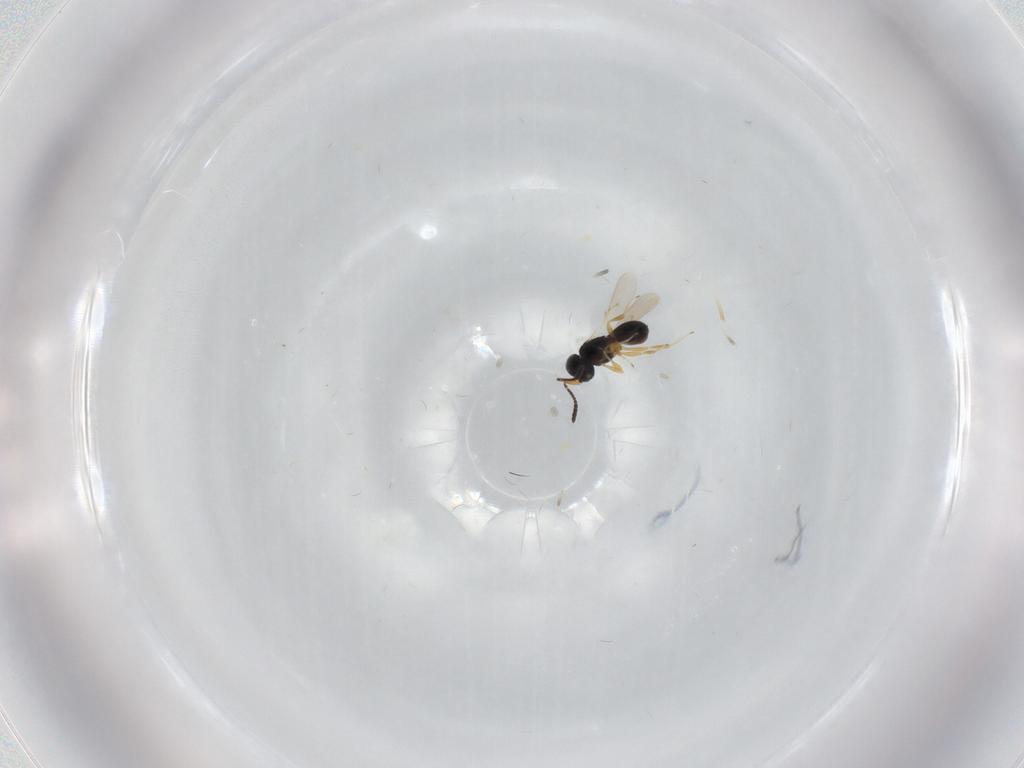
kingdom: Animalia
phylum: Arthropoda
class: Insecta
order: Hymenoptera
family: Scelionidae
